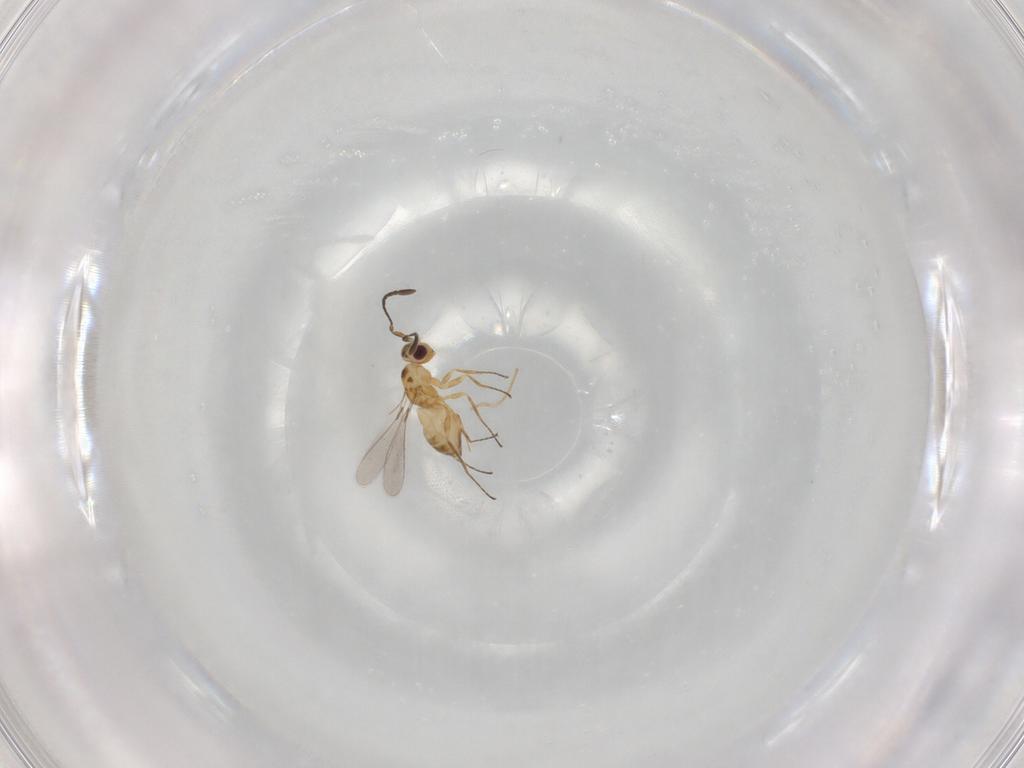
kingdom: Animalia
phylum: Arthropoda
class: Insecta
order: Hymenoptera
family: Mymaridae
